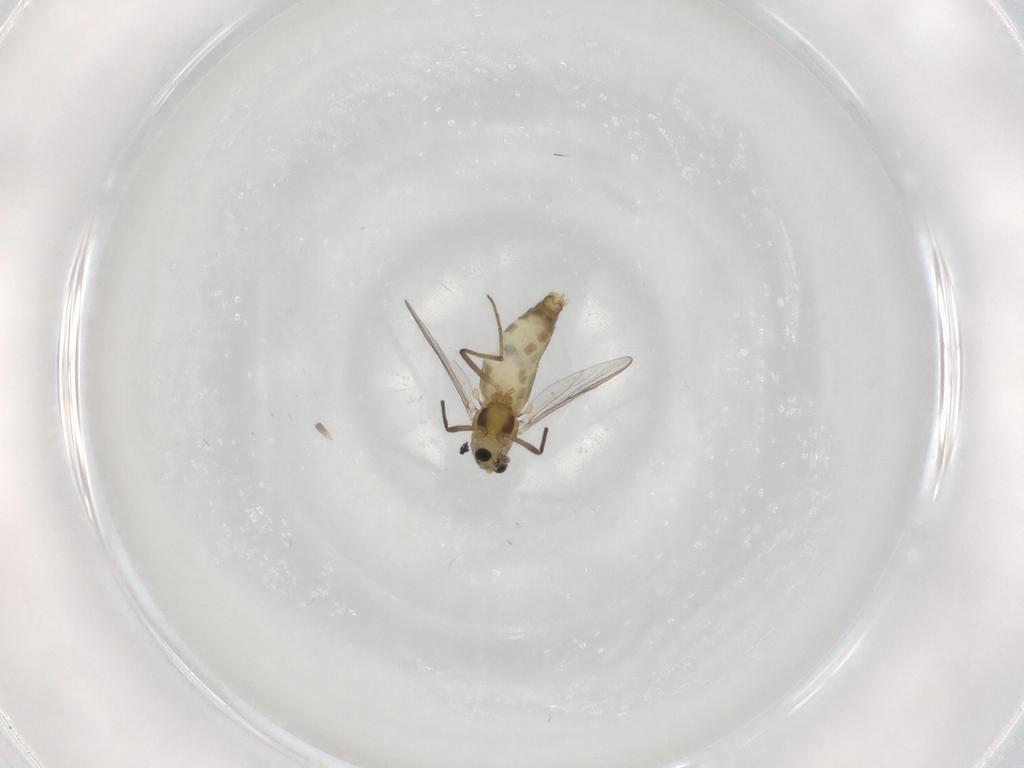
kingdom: Animalia
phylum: Arthropoda
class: Insecta
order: Diptera
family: Chironomidae
